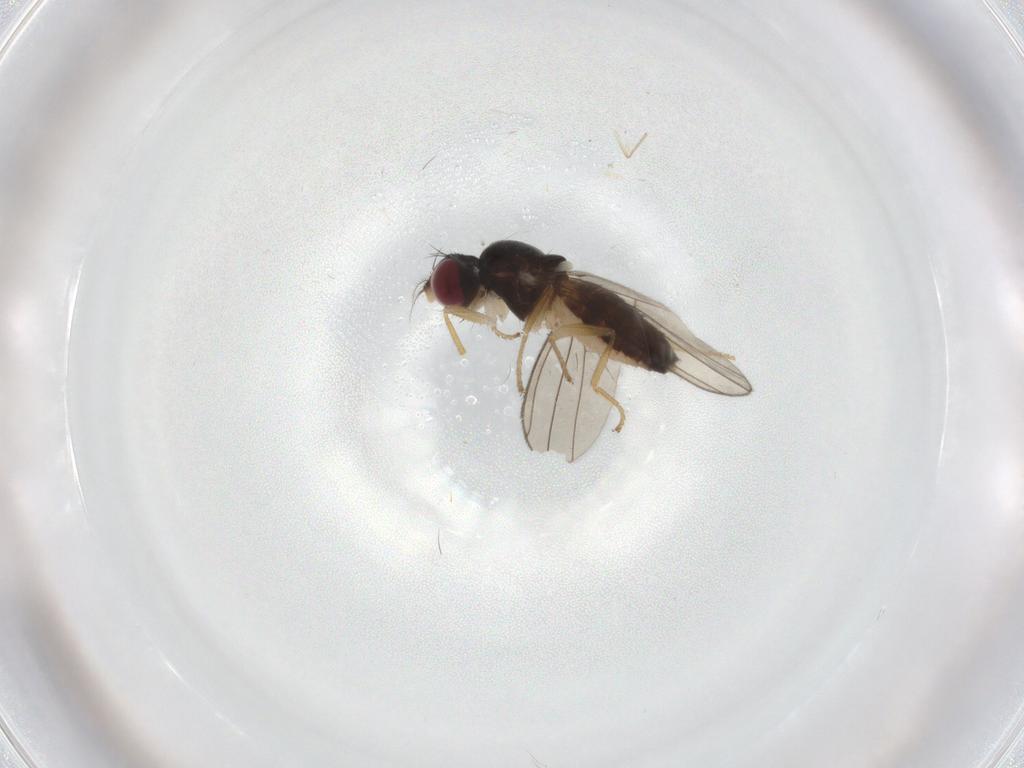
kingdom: Animalia
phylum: Arthropoda
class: Insecta
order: Diptera
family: Anthomyzidae
